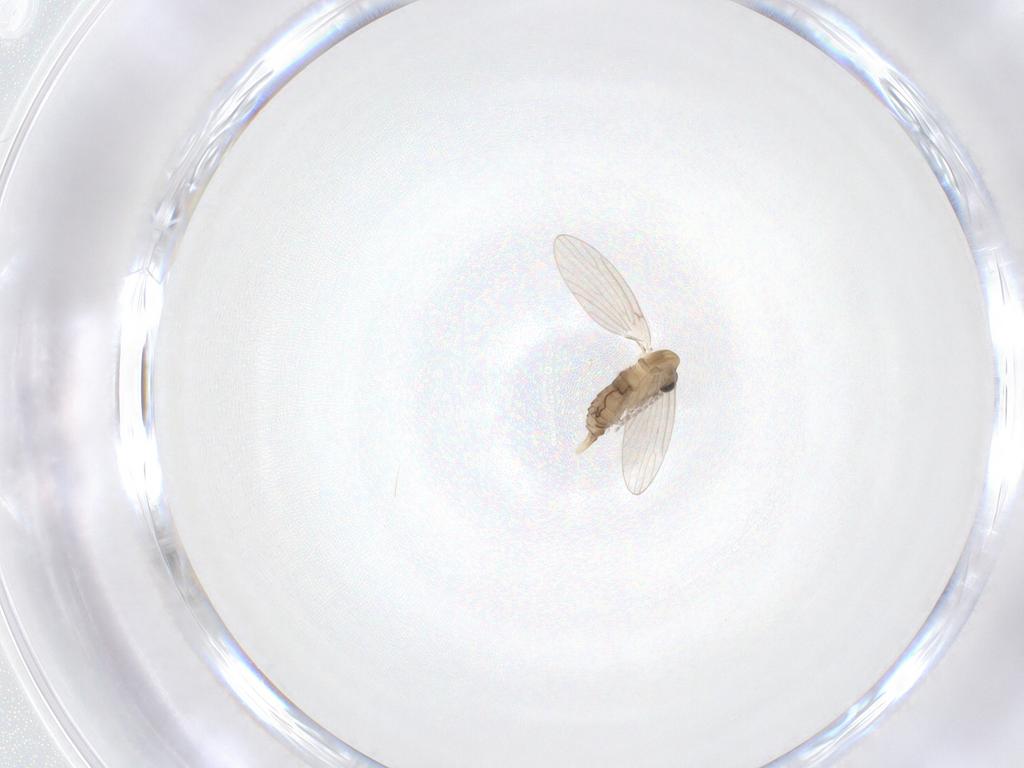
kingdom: Animalia
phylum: Arthropoda
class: Insecta
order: Diptera
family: Psychodidae
